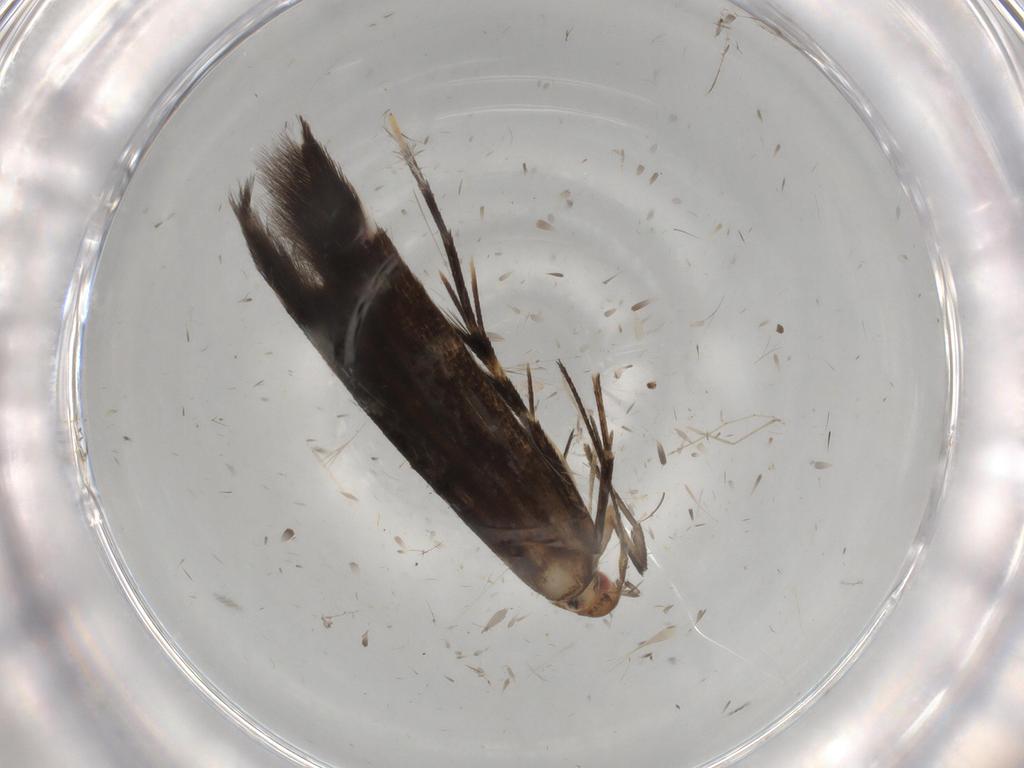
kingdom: Animalia
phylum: Arthropoda
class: Insecta
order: Lepidoptera
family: Cosmopterigidae
